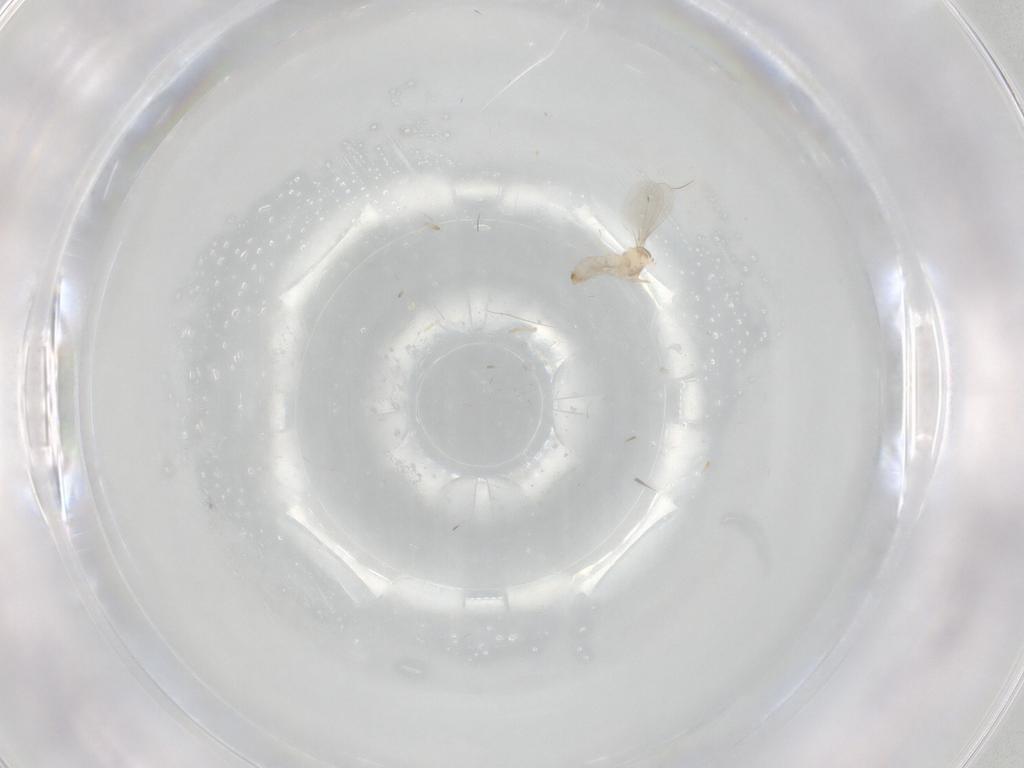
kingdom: Animalia
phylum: Arthropoda
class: Insecta
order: Diptera
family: Cecidomyiidae
